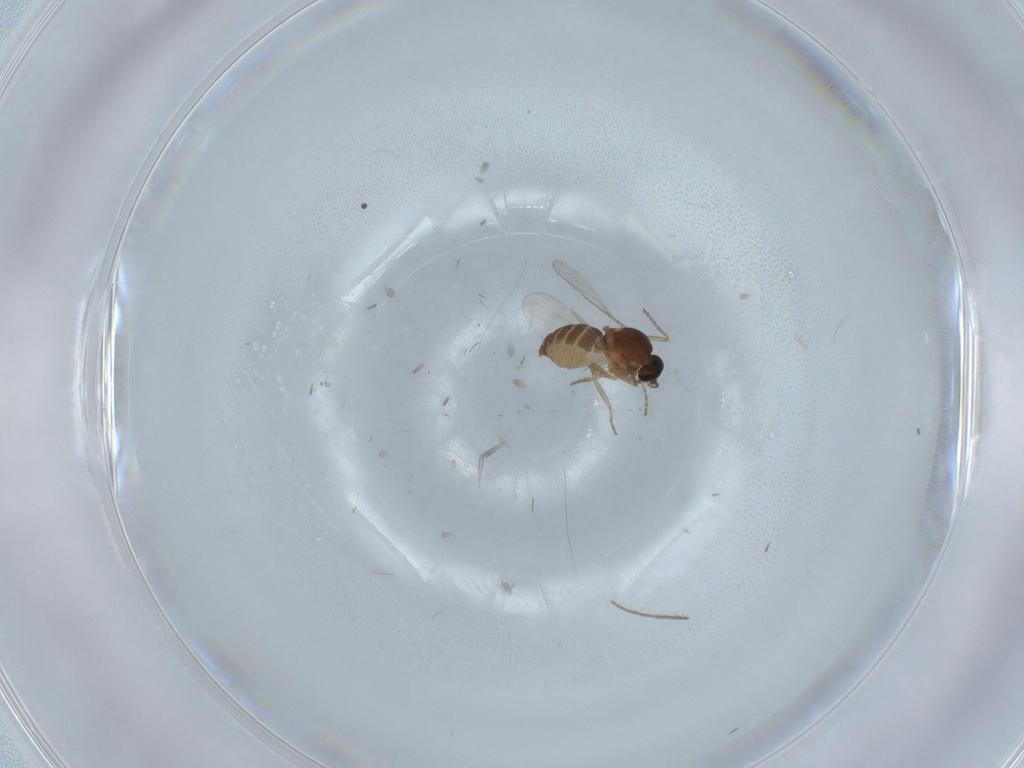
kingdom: Animalia
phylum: Arthropoda
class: Insecta
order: Diptera
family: Ceratopogonidae
